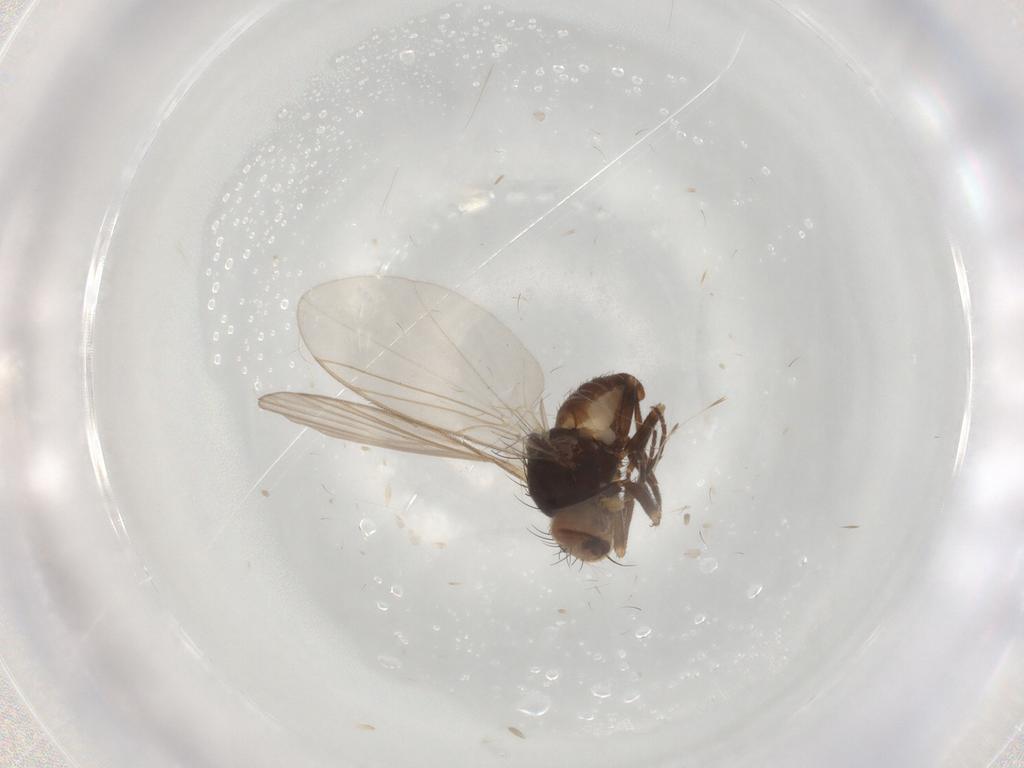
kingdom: Animalia
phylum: Arthropoda
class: Insecta
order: Diptera
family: Agromyzidae
